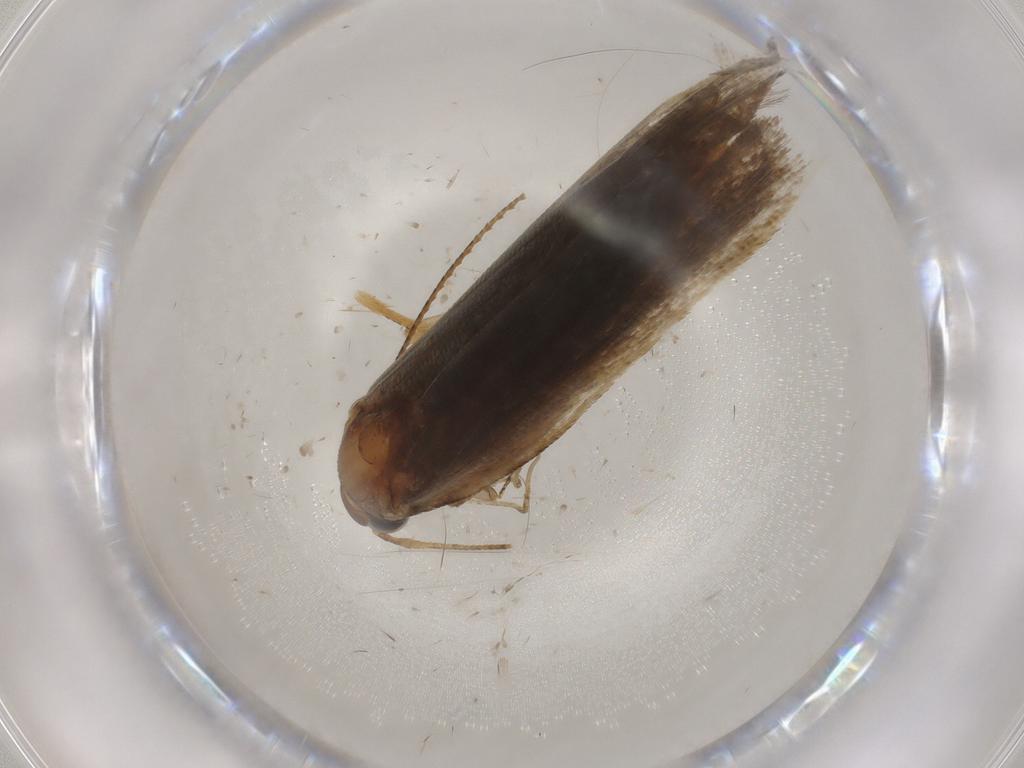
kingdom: Animalia
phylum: Arthropoda
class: Insecta
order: Lepidoptera
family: Gelechiidae
